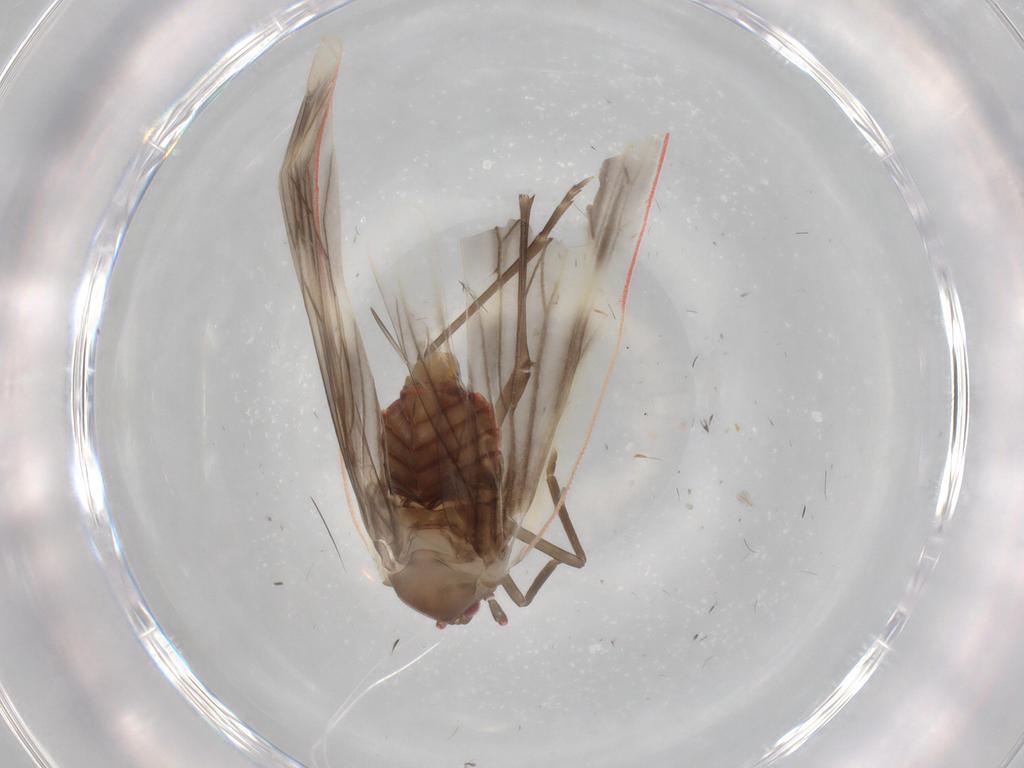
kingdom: Animalia
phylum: Arthropoda
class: Insecta
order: Hemiptera
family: Derbidae
